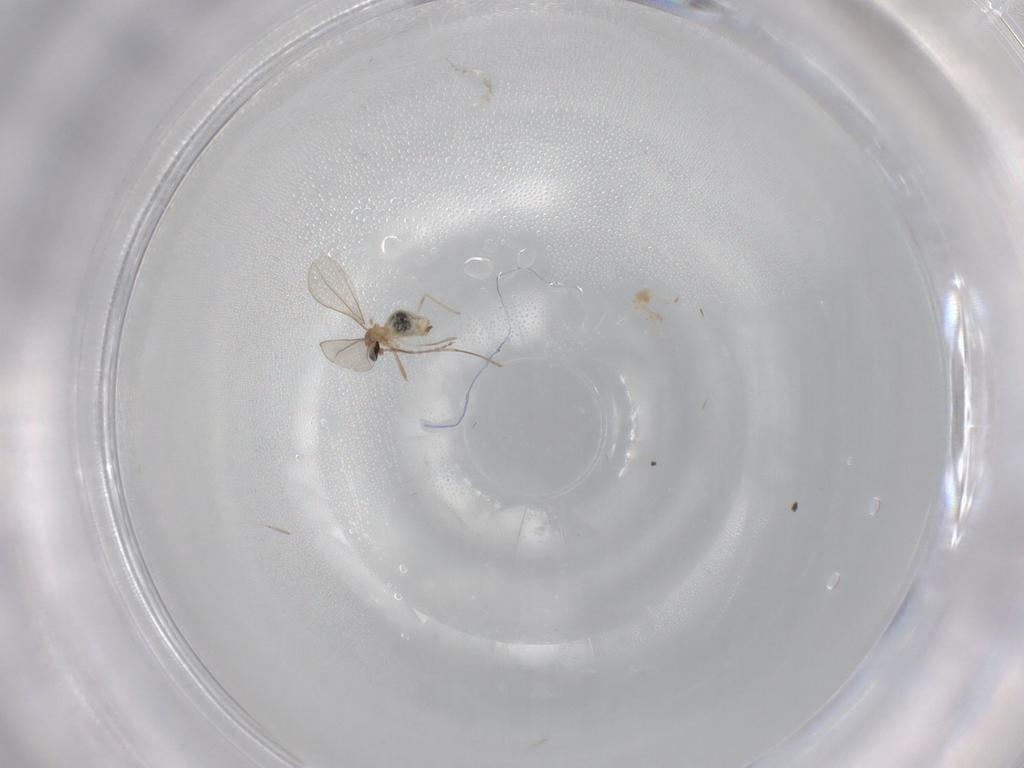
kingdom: Animalia
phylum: Arthropoda
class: Insecta
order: Diptera
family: Cecidomyiidae
